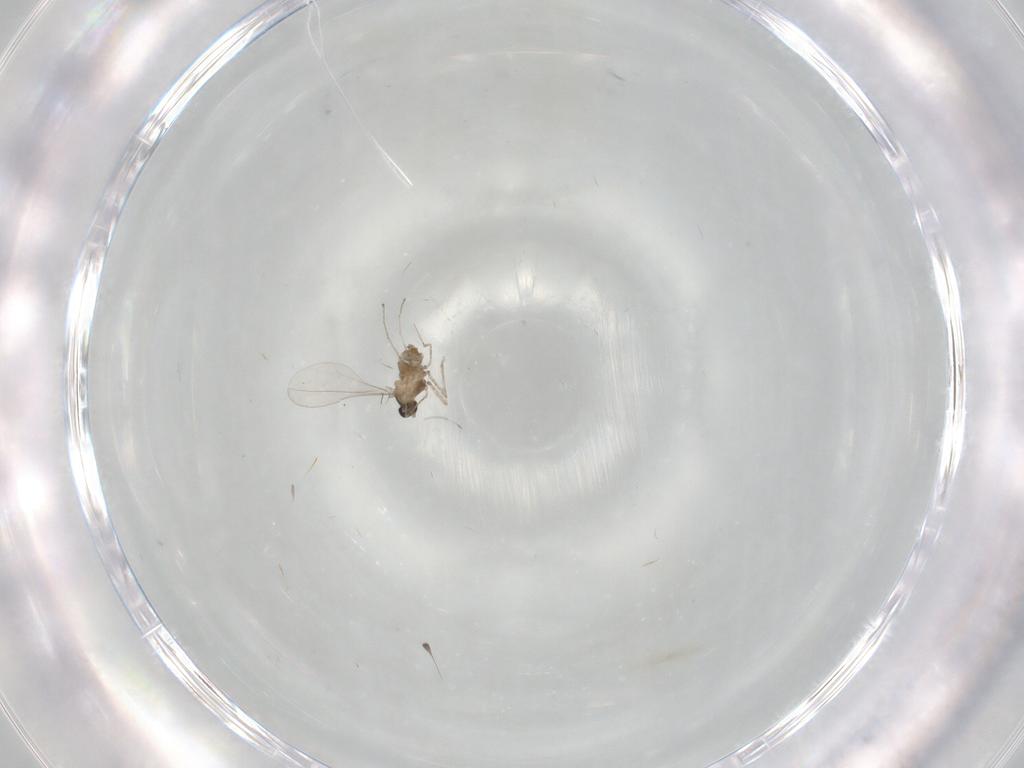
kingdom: Animalia
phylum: Arthropoda
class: Insecta
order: Diptera
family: Cecidomyiidae
